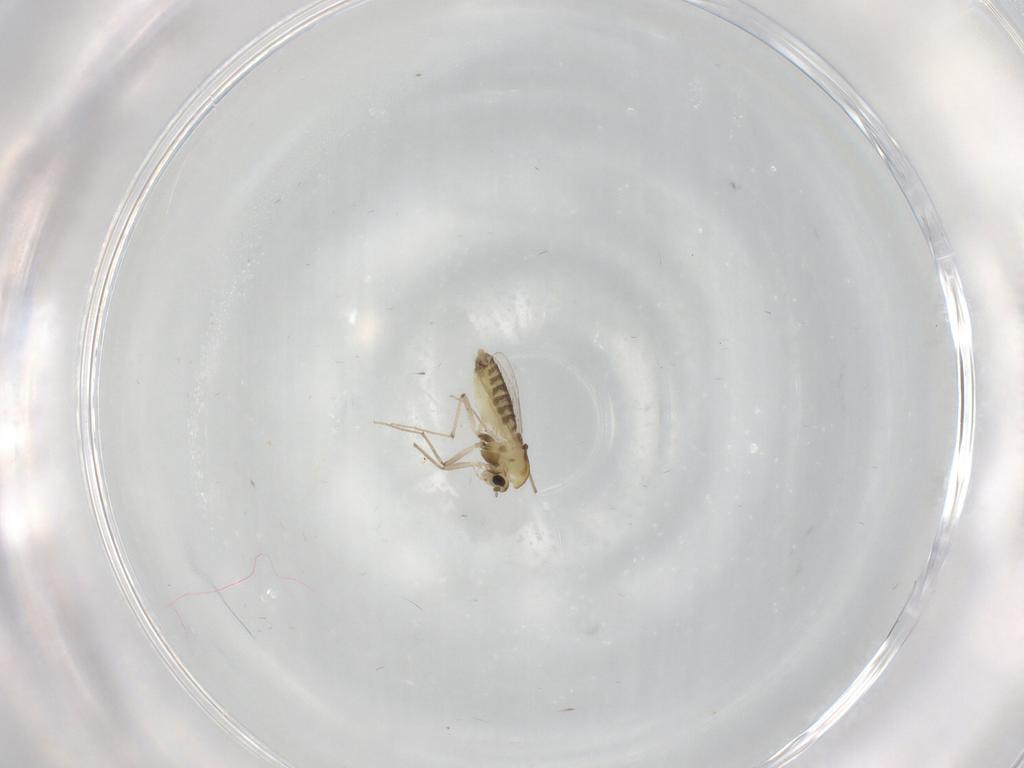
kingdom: Animalia
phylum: Arthropoda
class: Insecta
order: Diptera
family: Chironomidae
